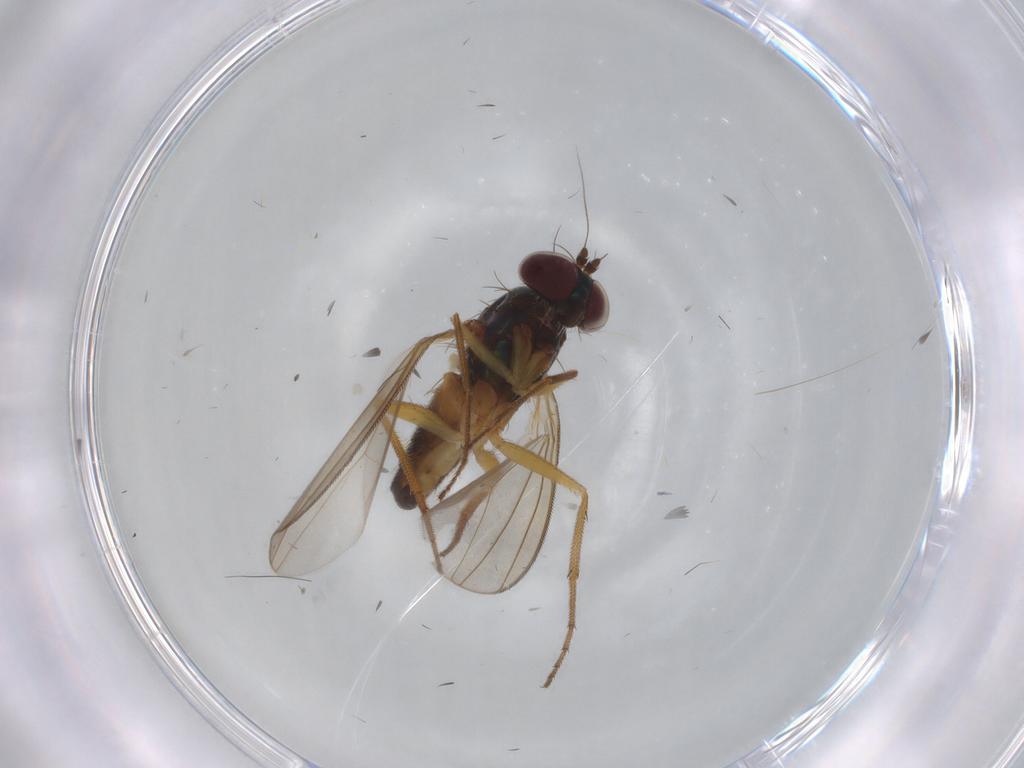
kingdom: Animalia
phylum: Arthropoda
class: Insecta
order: Diptera
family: Dolichopodidae
